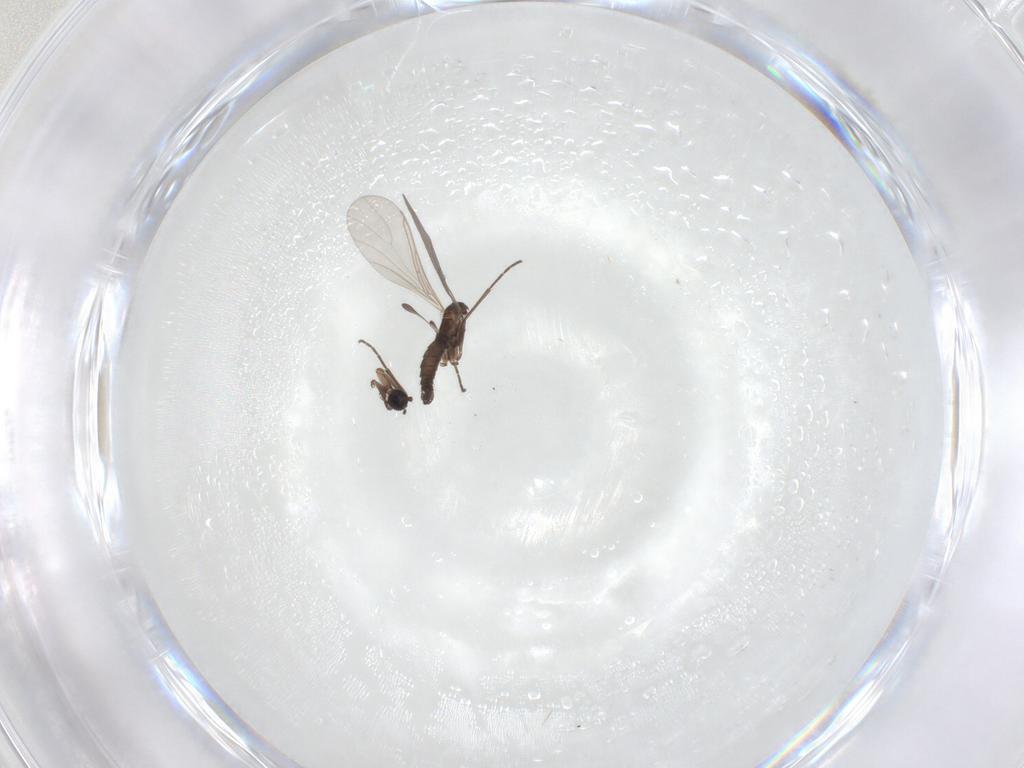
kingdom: Animalia
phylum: Arthropoda
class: Insecta
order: Diptera
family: Sciaridae
